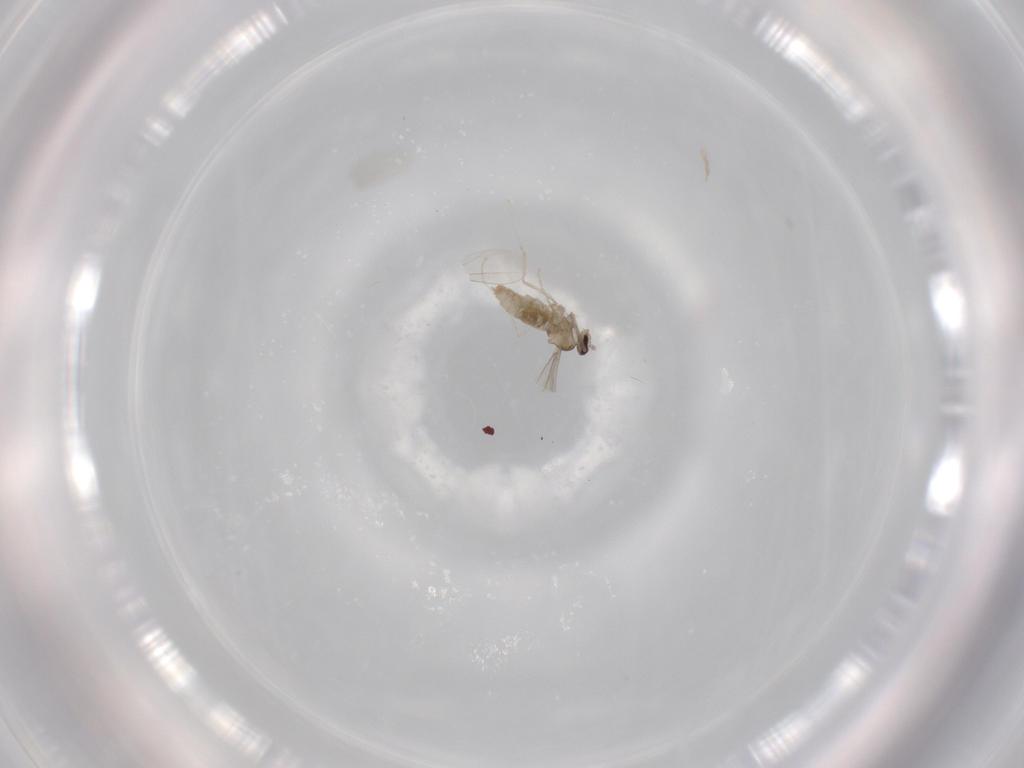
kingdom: Animalia
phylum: Arthropoda
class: Insecta
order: Diptera
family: Cecidomyiidae
